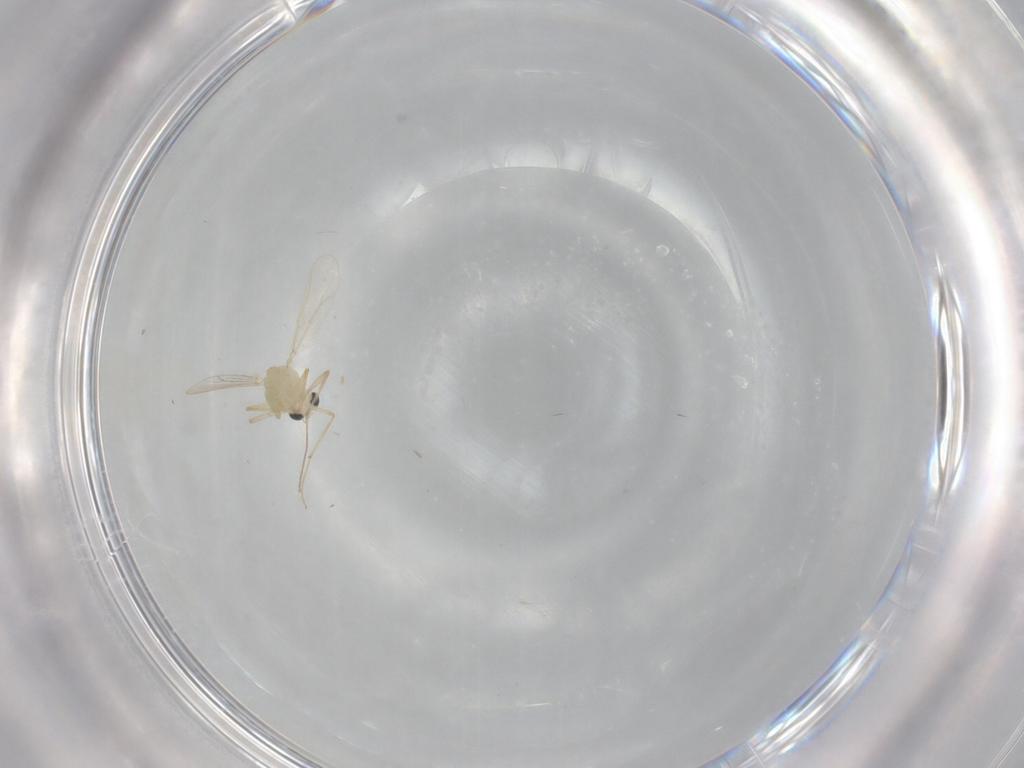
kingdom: Animalia
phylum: Arthropoda
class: Insecta
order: Diptera
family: Chironomidae
